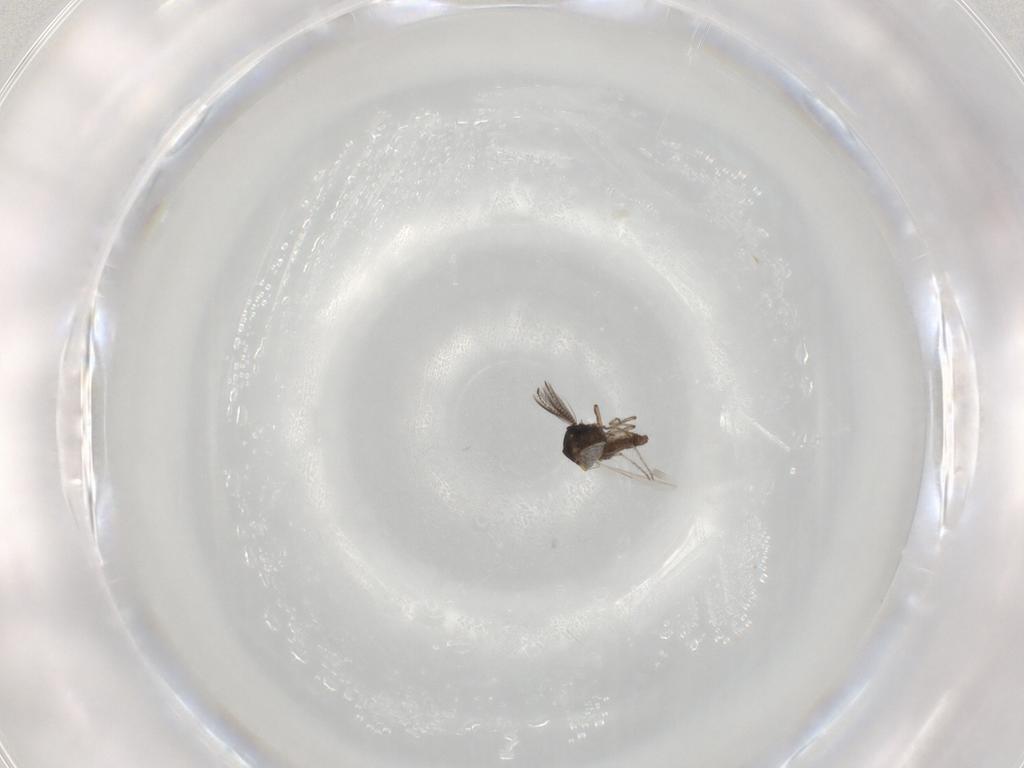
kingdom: Animalia
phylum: Arthropoda
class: Insecta
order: Diptera
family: Ceratopogonidae
